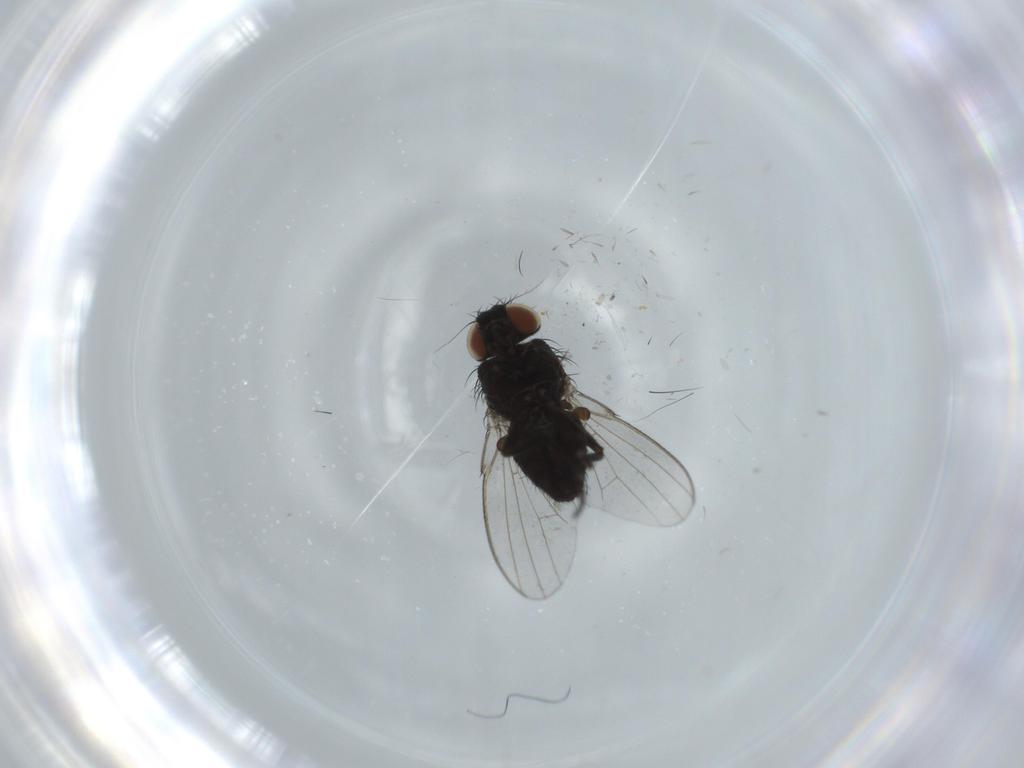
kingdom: Animalia
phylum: Arthropoda
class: Insecta
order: Diptera
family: Milichiidae
